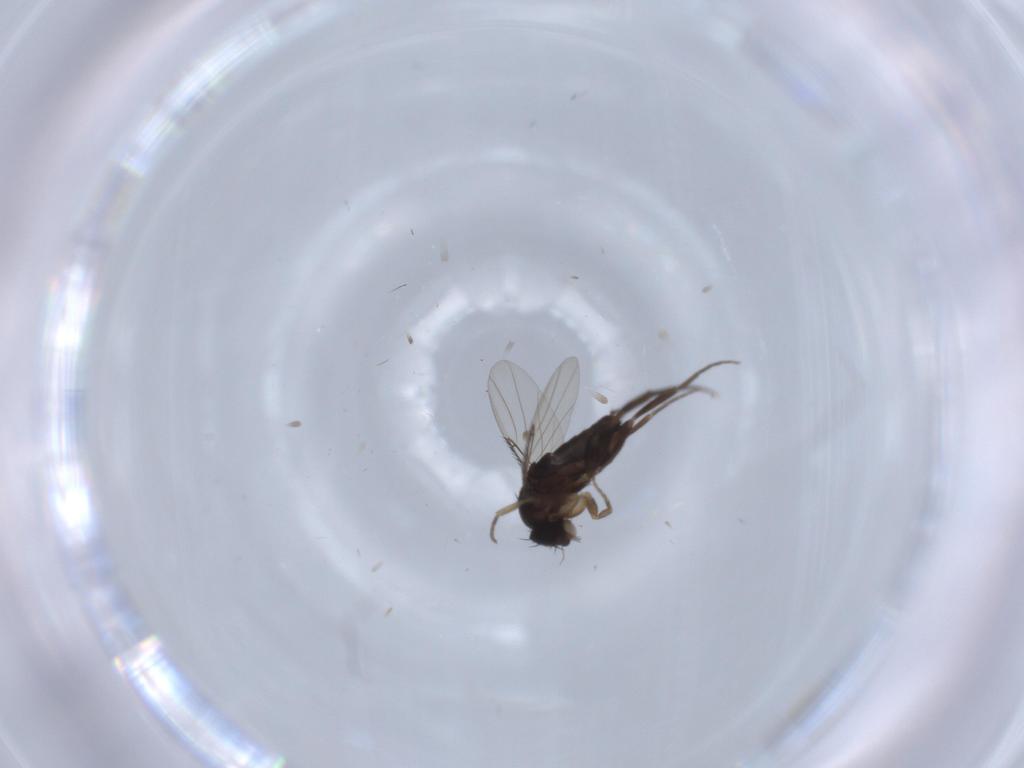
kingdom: Animalia
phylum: Arthropoda
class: Insecta
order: Diptera
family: Phoridae
